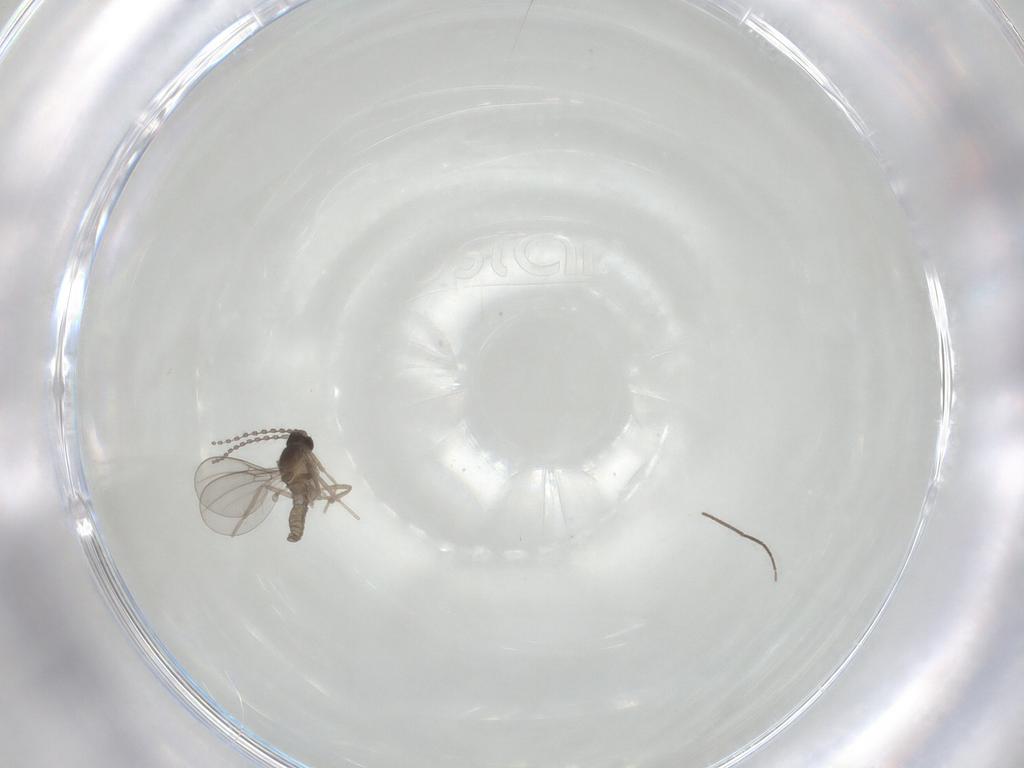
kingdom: Animalia
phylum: Arthropoda
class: Insecta
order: Diptera
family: Cecidomyiidae
